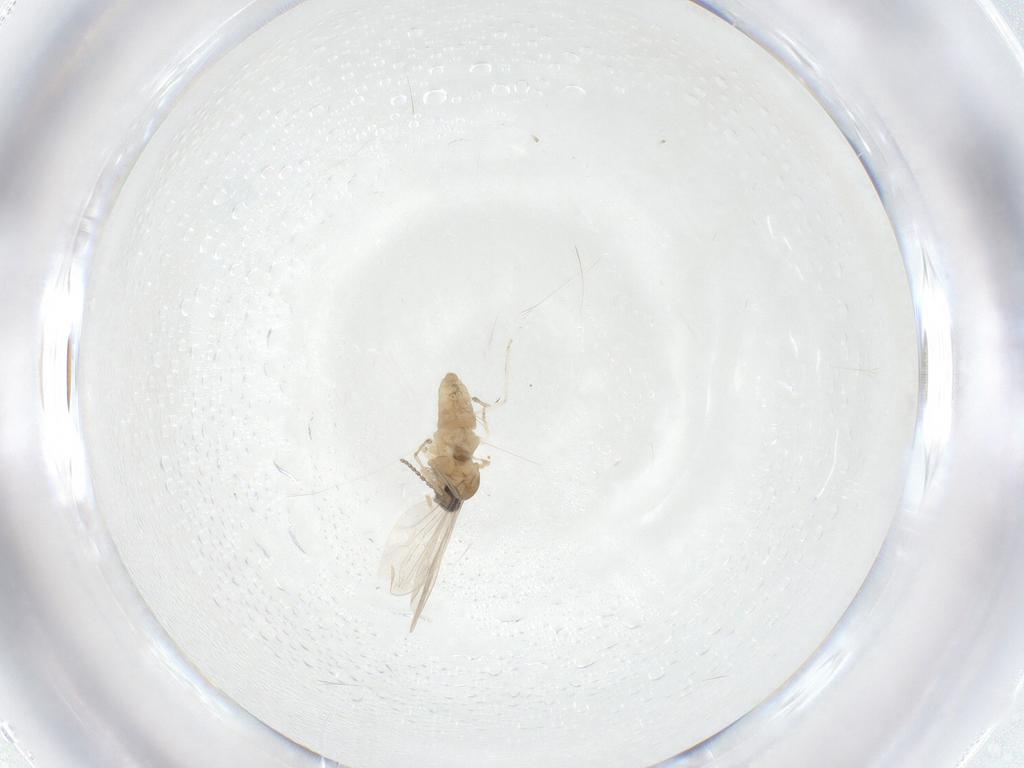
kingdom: Animalia
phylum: Arthropoda
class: Insecta
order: Diptera
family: Cecidomyiidae
